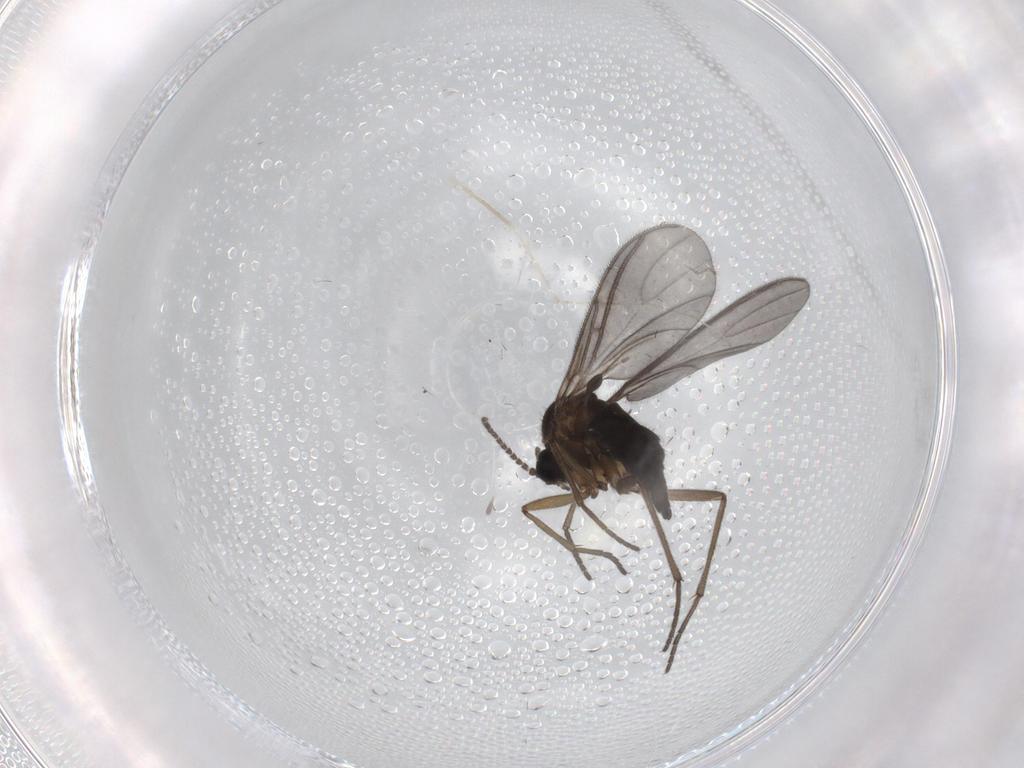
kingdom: Animalia
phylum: Arthropoda
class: Insecta
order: Diptera
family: Sciaridae
